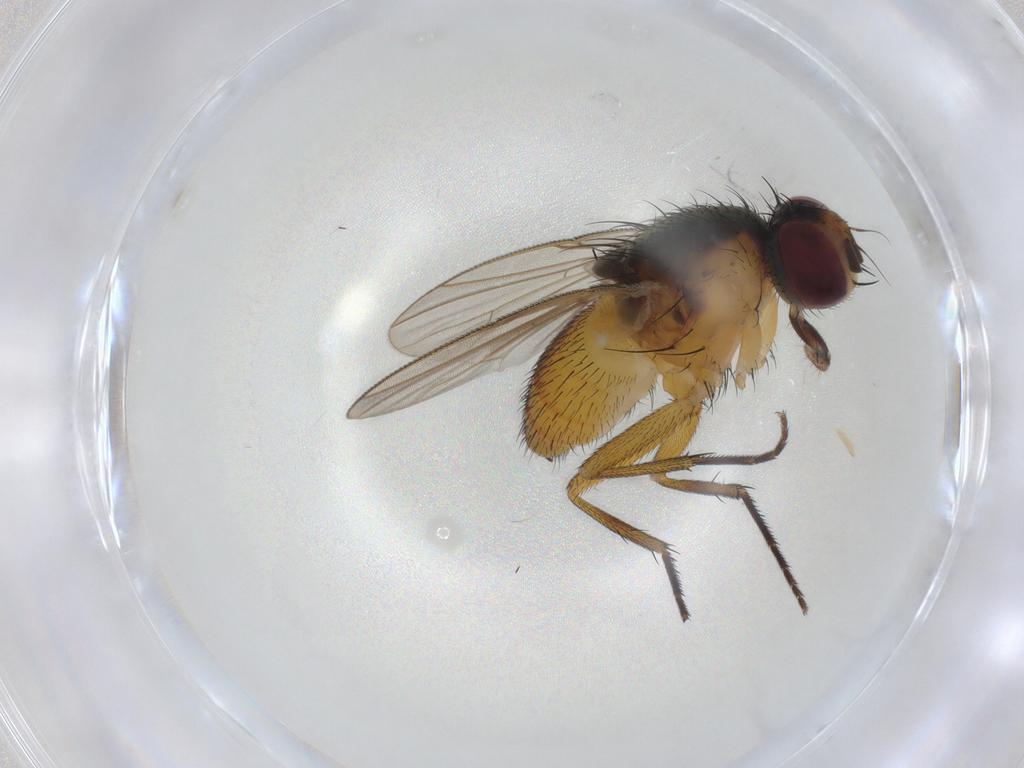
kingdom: Animalia
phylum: Arthropoda
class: Insecta
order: Diptera
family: Muscidae
